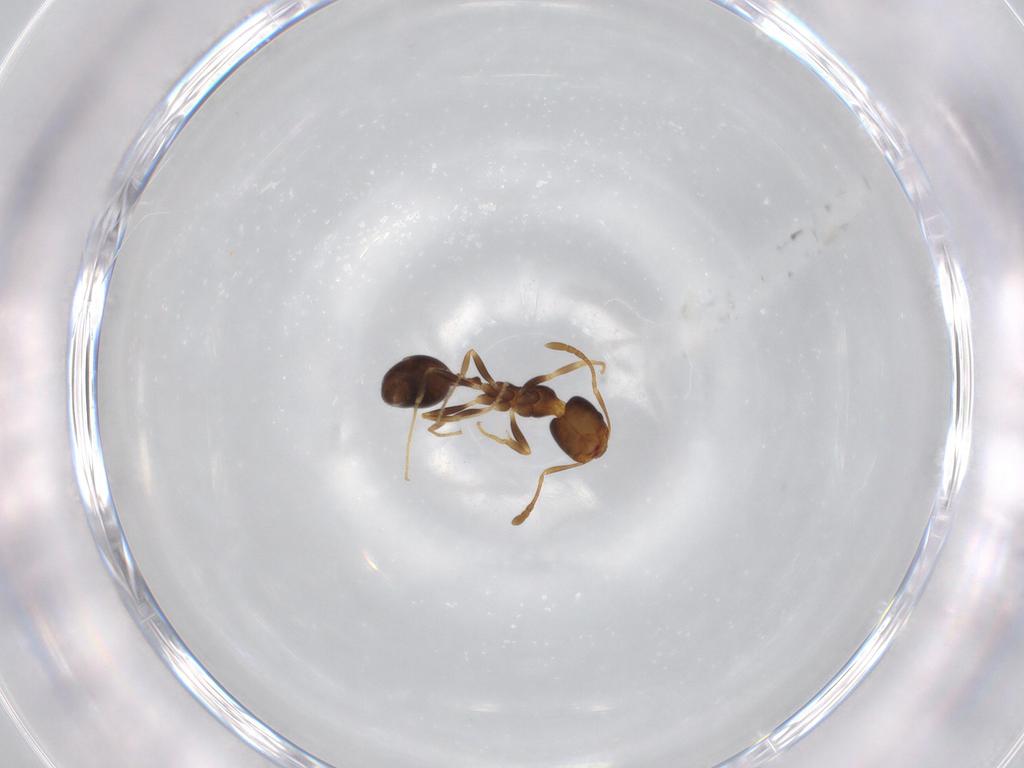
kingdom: Animalia
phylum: Arthropoda
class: Insecta
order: Hymenoptera
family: Formicidae
